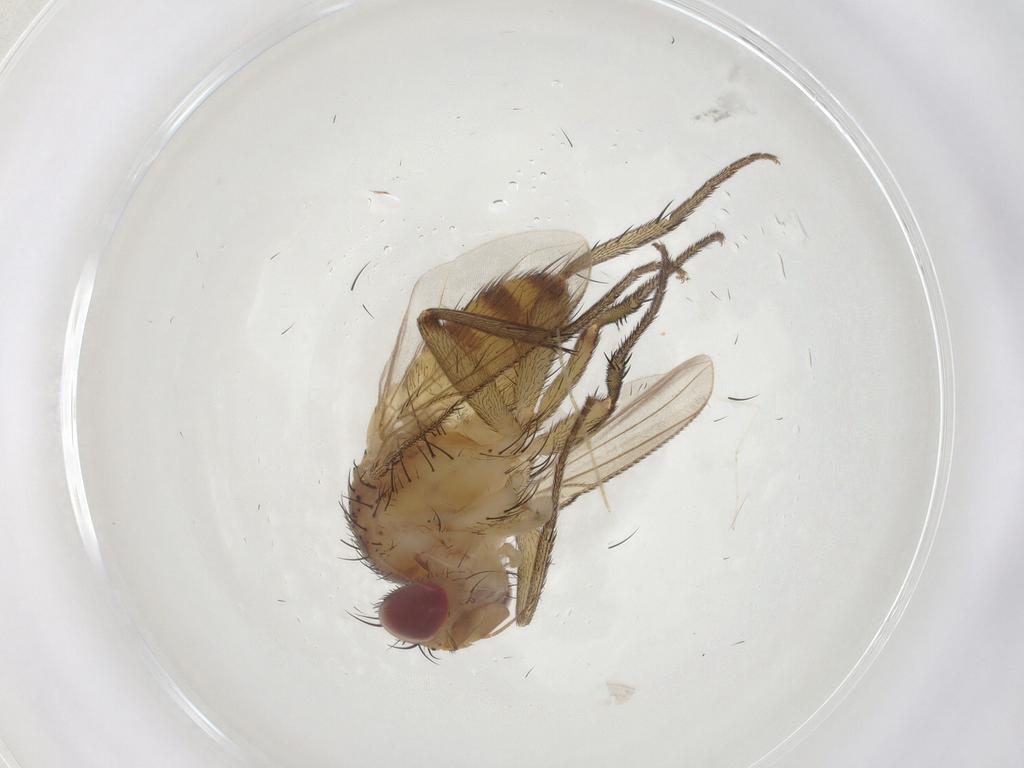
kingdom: Animalia
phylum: Arthropoda
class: Insecta
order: Diptera
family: Tachinidae
